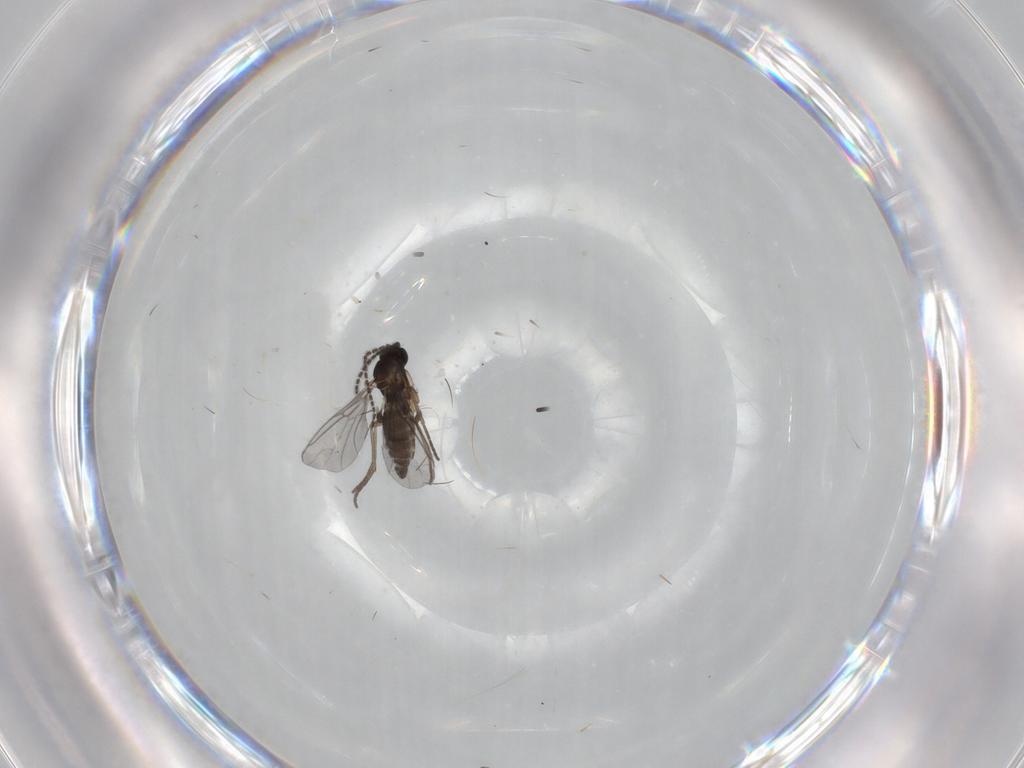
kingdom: Animalia
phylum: Arthropoda
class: Insecta
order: Diptera
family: Sciaridae
